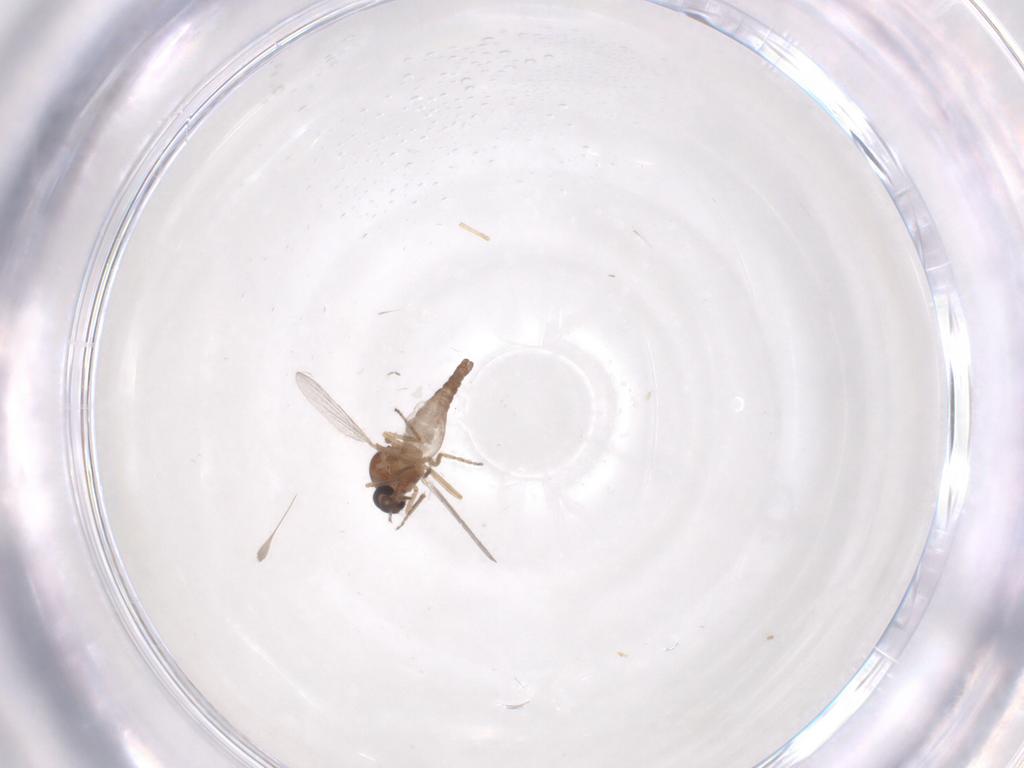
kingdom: Animalia
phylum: Arthropoda
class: Insecta
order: Diptera
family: Ceratopogonidae
